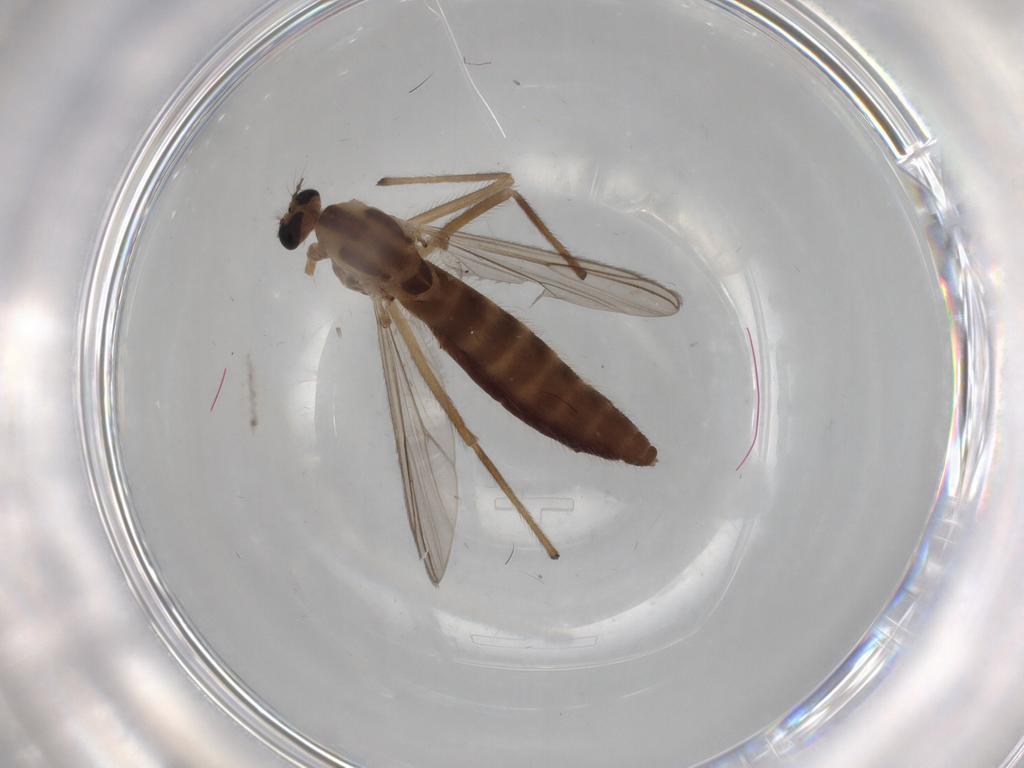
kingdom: Animalia
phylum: Arthropoda
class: Insecta
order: Diptera
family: Chironomidae
